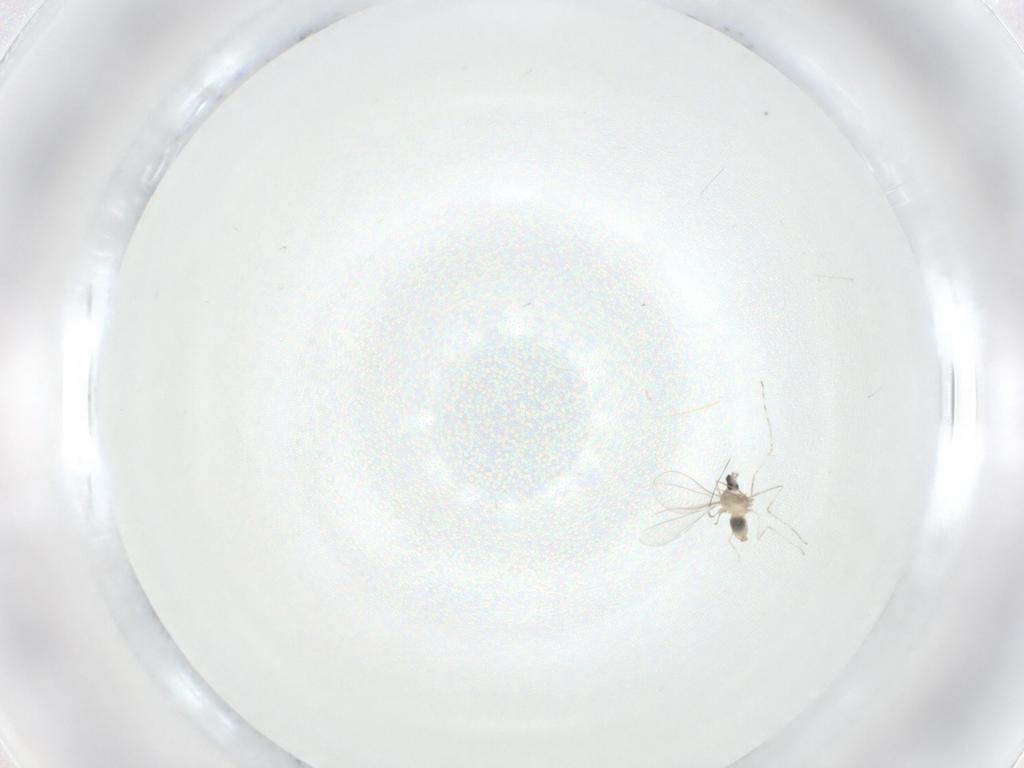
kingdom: Animalia
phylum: Arthropoda
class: Insecta
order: Diptera
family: Cecidomyiidae
